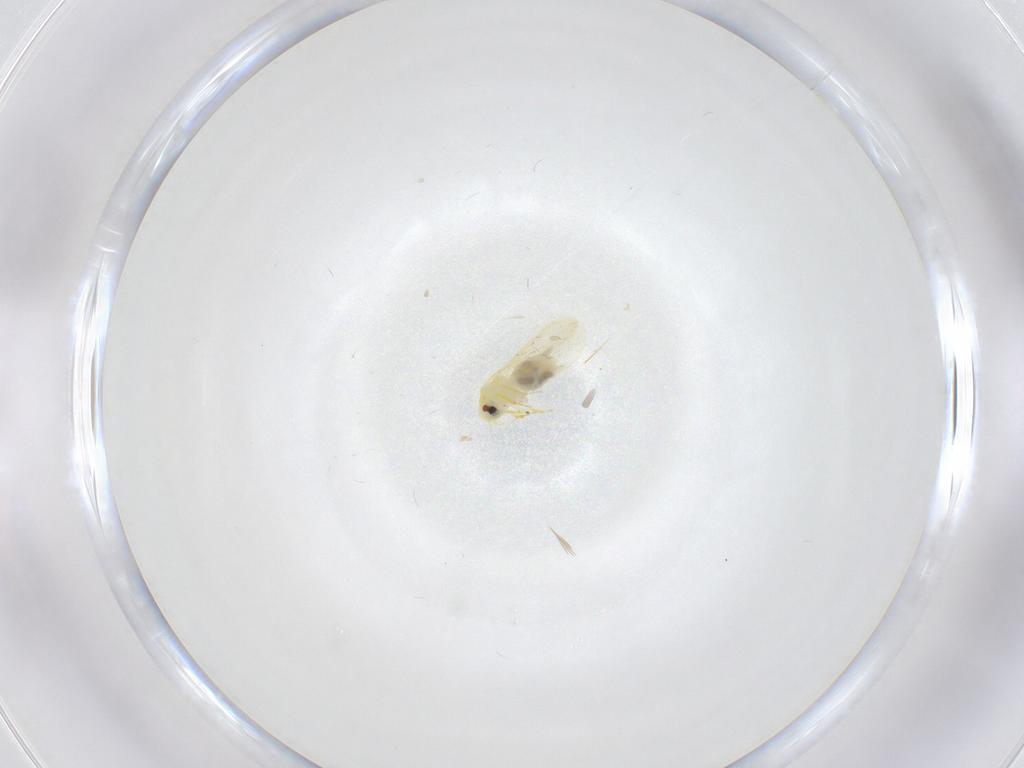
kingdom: Animalia
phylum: Arthropoda
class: Insecta
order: Hemiptera
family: Aleyrodidae
